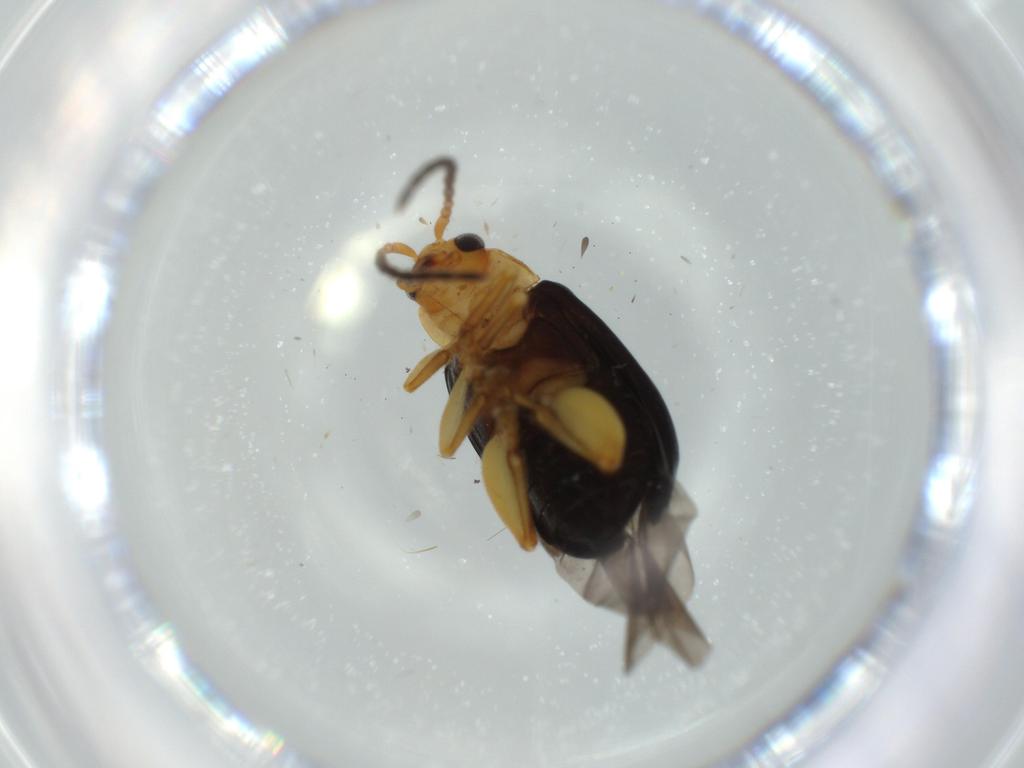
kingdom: Animalia
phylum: Arthropoda
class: Insecta
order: Coleoptera
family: Chrysomelidae
